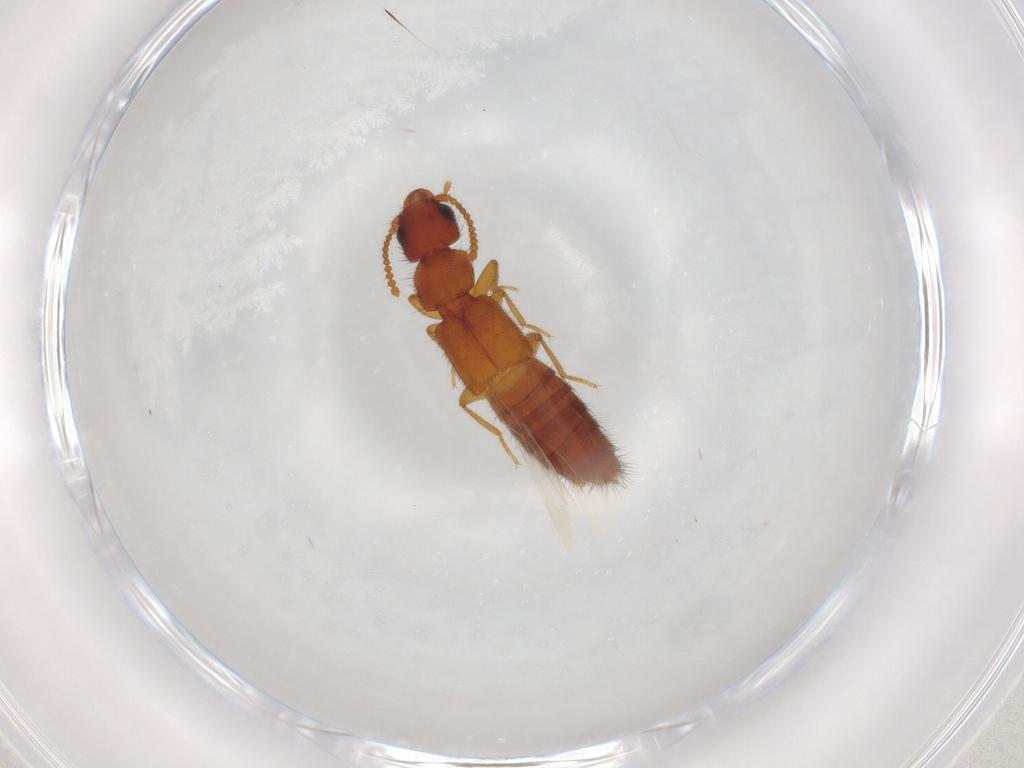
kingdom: Animalia
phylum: Arthropoda
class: Insecta
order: Coleoptera
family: Staphylinidae
